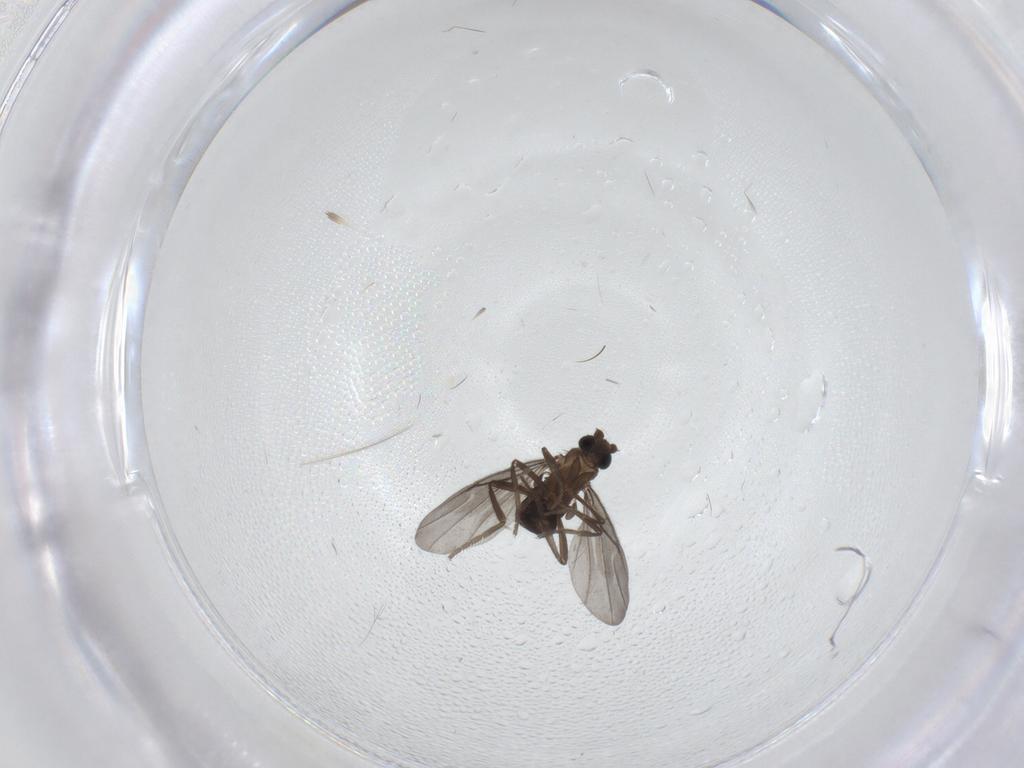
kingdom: Animalia
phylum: Arthropoda
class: Insecta
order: Diptera
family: Phoridae
